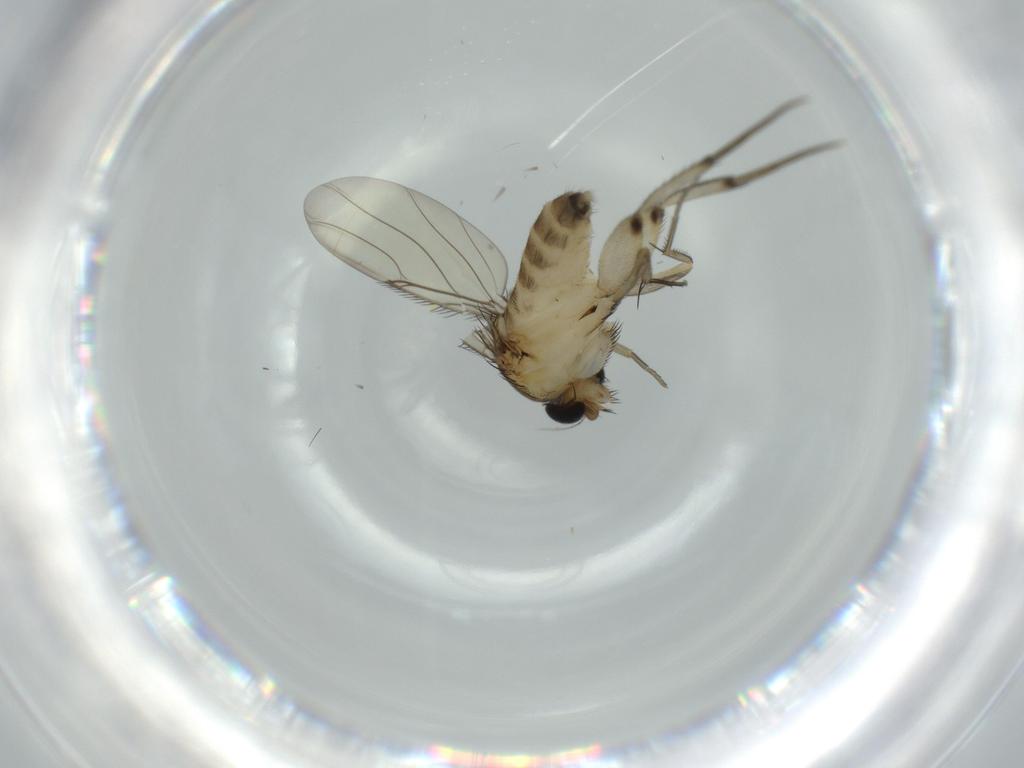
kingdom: Animalia
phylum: Arthropoda
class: Insecta
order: Diptera
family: Phoridae
